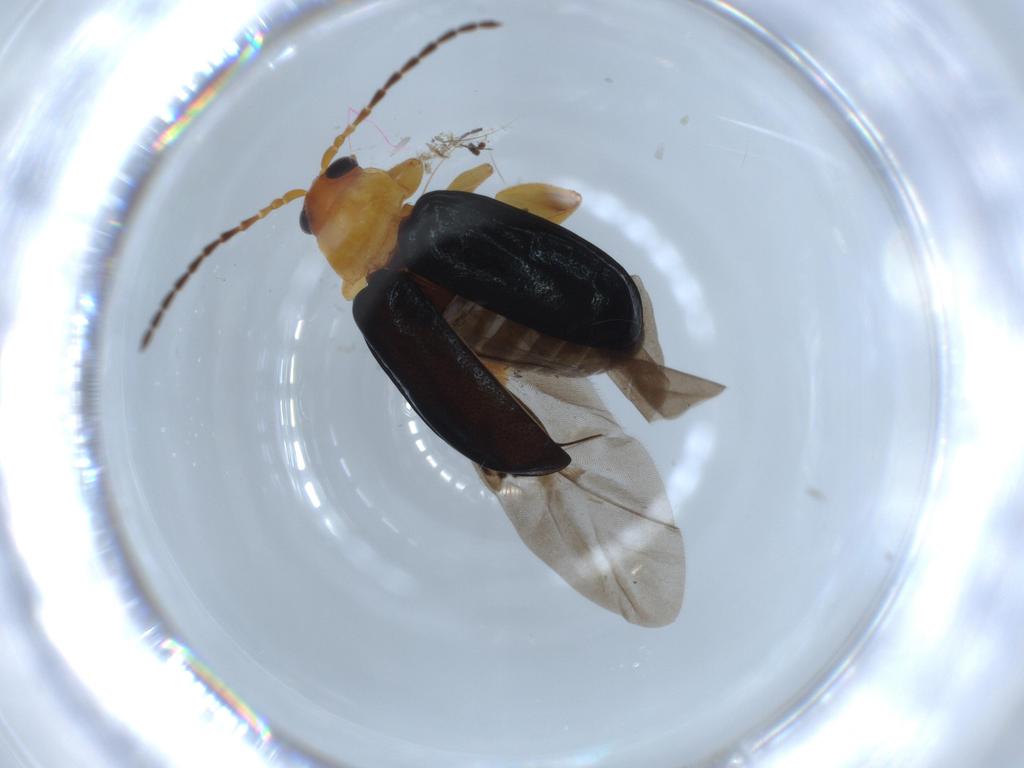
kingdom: Animalia
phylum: Arthropoda
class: Insecta
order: Coleoptera
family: Chrysomelidae
